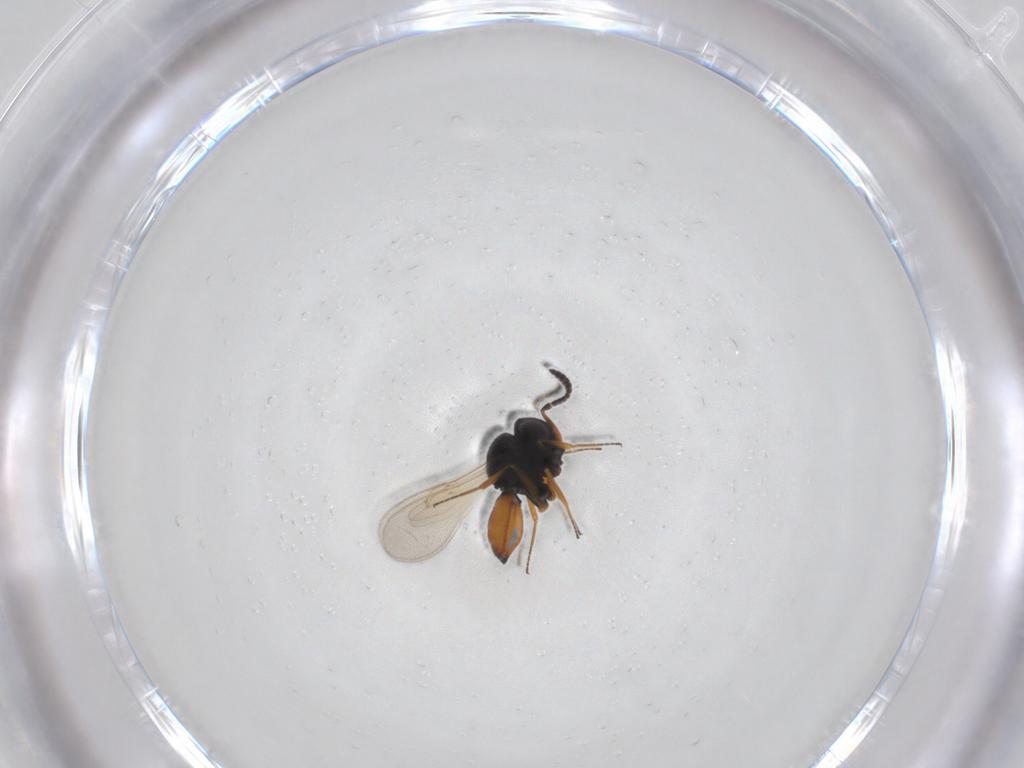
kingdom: Animalia
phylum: Arthropoda
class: Insecta
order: Hymenoptera
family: Scelionidae
